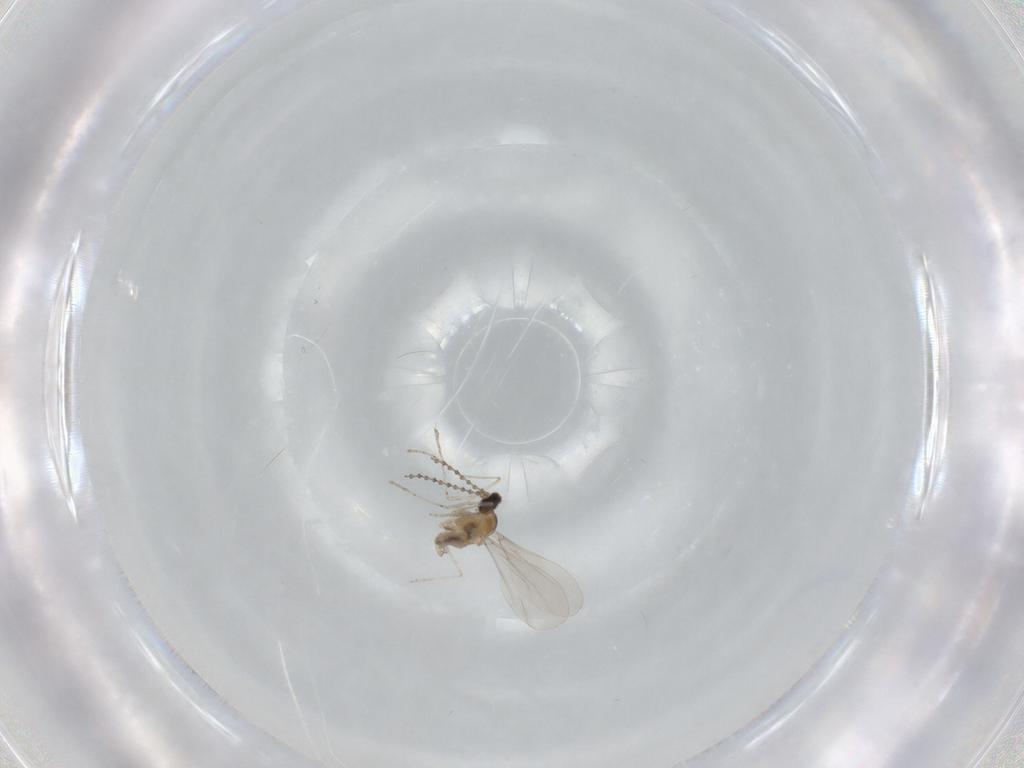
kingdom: Animalia
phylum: Arthropoda
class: Insecta
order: Diptera
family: Cecidomyiidae
